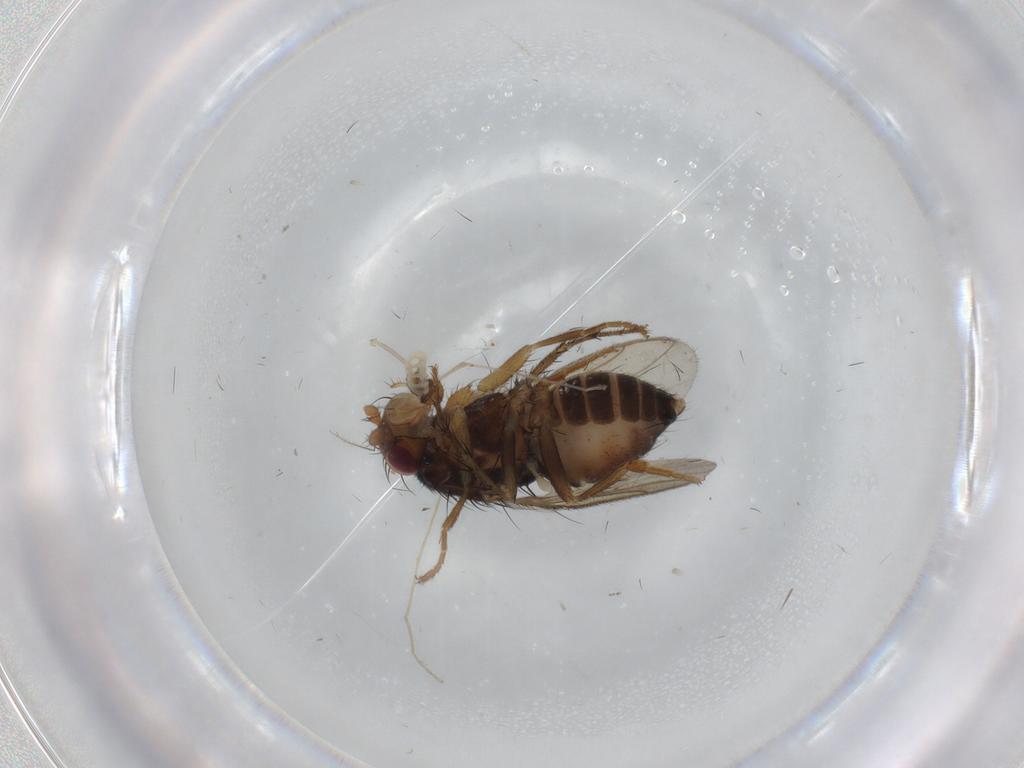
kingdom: Animalia
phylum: Arthropoda
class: Insecta
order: Diptera
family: Sphaeroceridae
